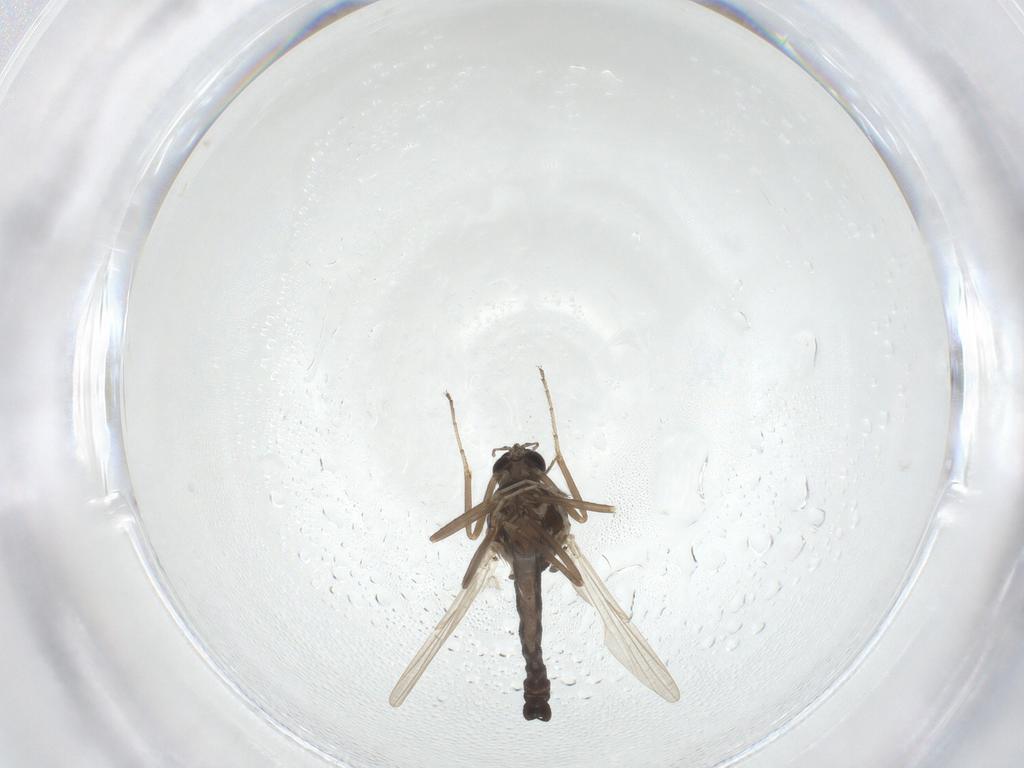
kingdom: Animalia
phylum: Arthropoda
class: Insecta
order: Diptera
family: Ceratopogonidae
